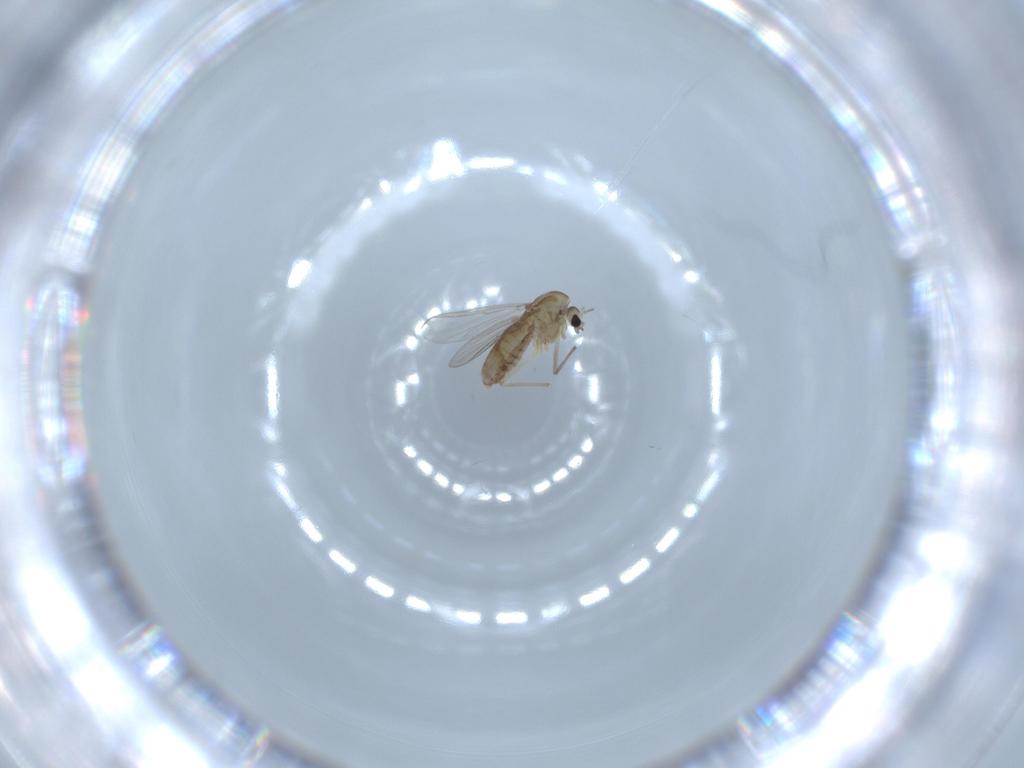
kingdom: Animalia
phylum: Arthropoda
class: Insecta
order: Diptera
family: Chironomidae
